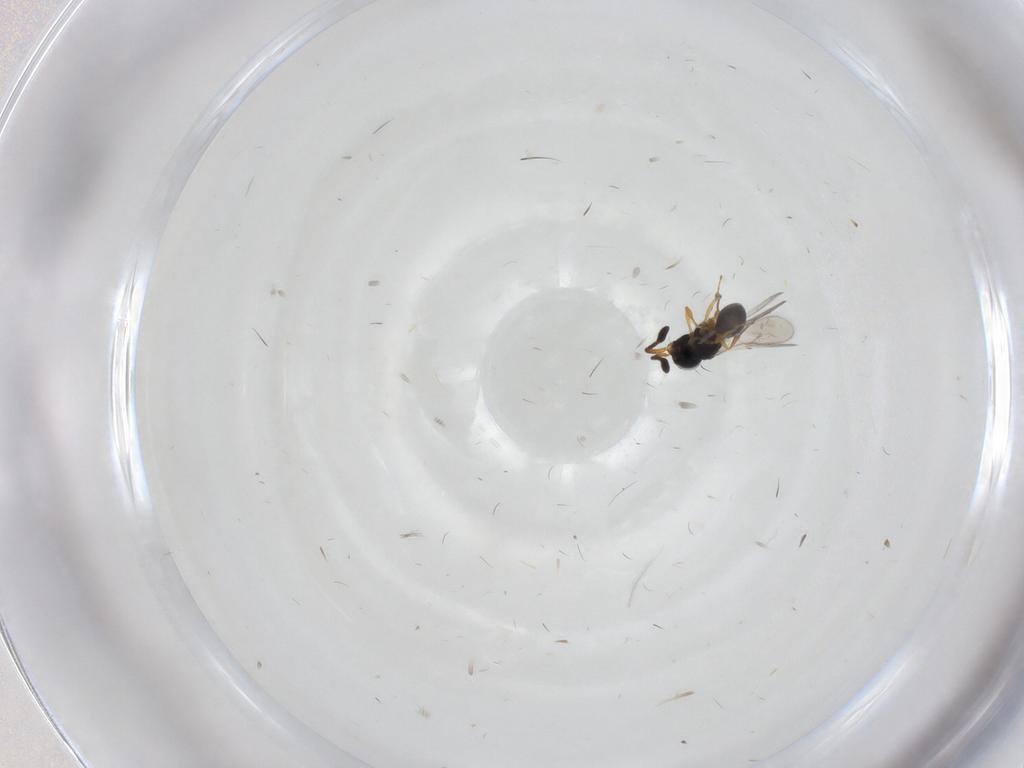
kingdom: Animalia
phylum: Arthropoda
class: Insecta
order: Hymenoptera
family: Scelionidae
